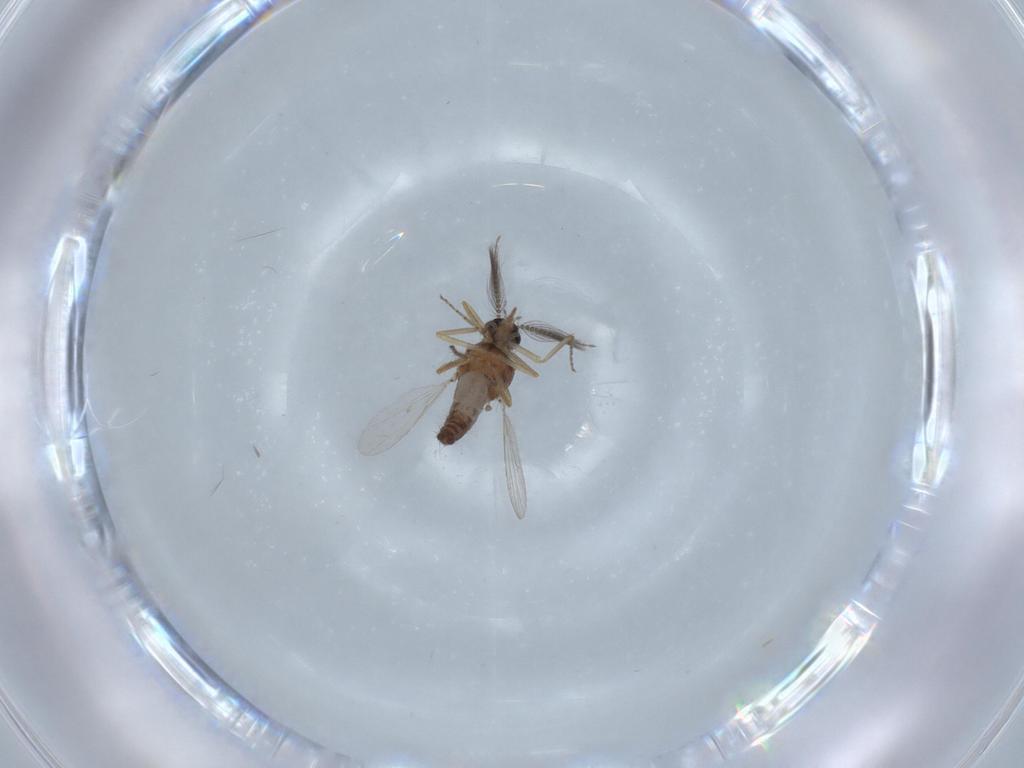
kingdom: Animalia
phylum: Arthropoda
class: Insecta
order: Diptera
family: Ceratopogonidae
